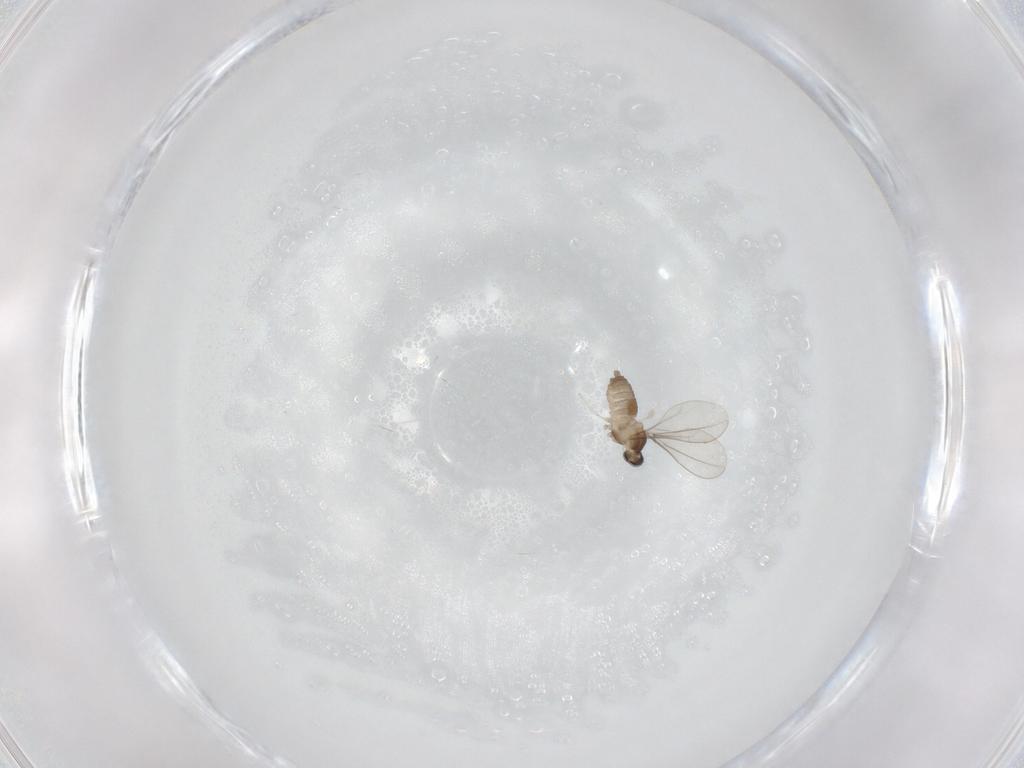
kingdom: Animalia
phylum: Arthropoda
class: Insecta
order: Diptera
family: Cecidomyiidae
